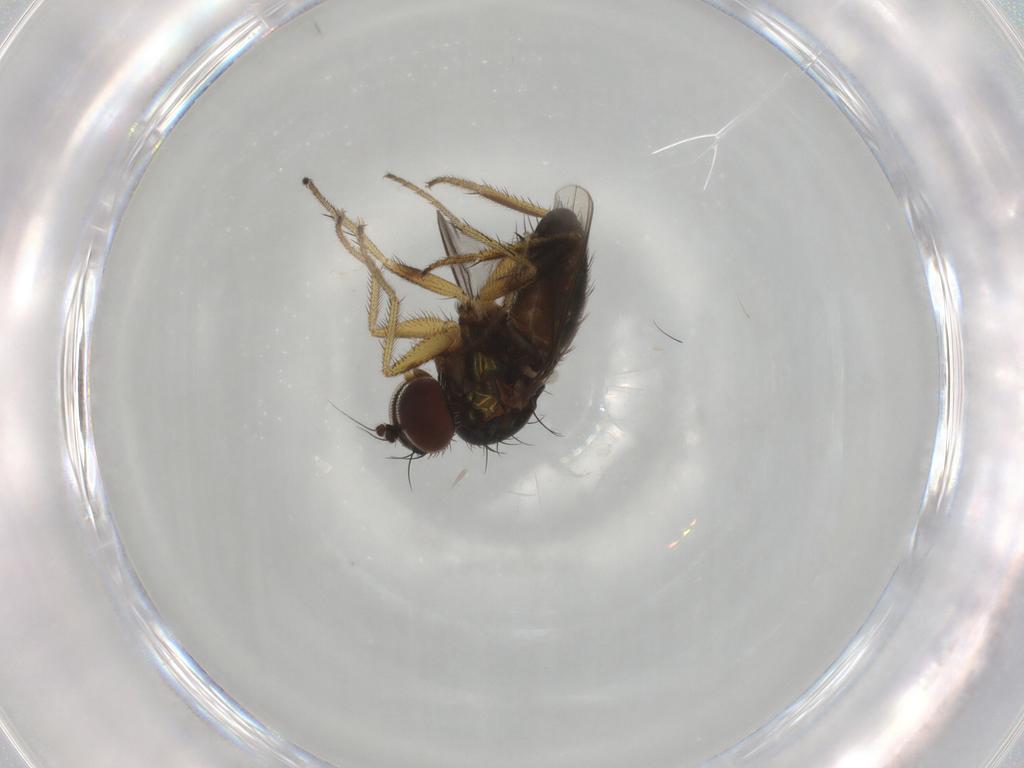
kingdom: Animalia
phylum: Arthropoda
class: Insecta
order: Diptera
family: Dolichopodidae
